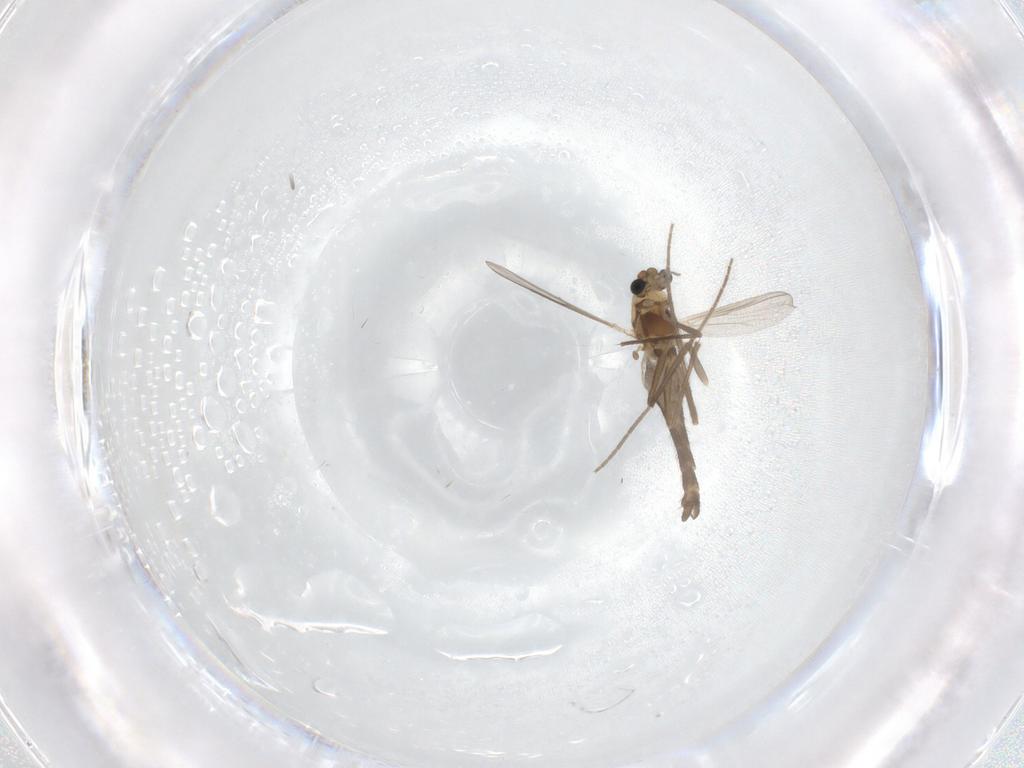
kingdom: Animalia
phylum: Arthropoda
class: Insecta
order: Diptera
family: Chironomidae
